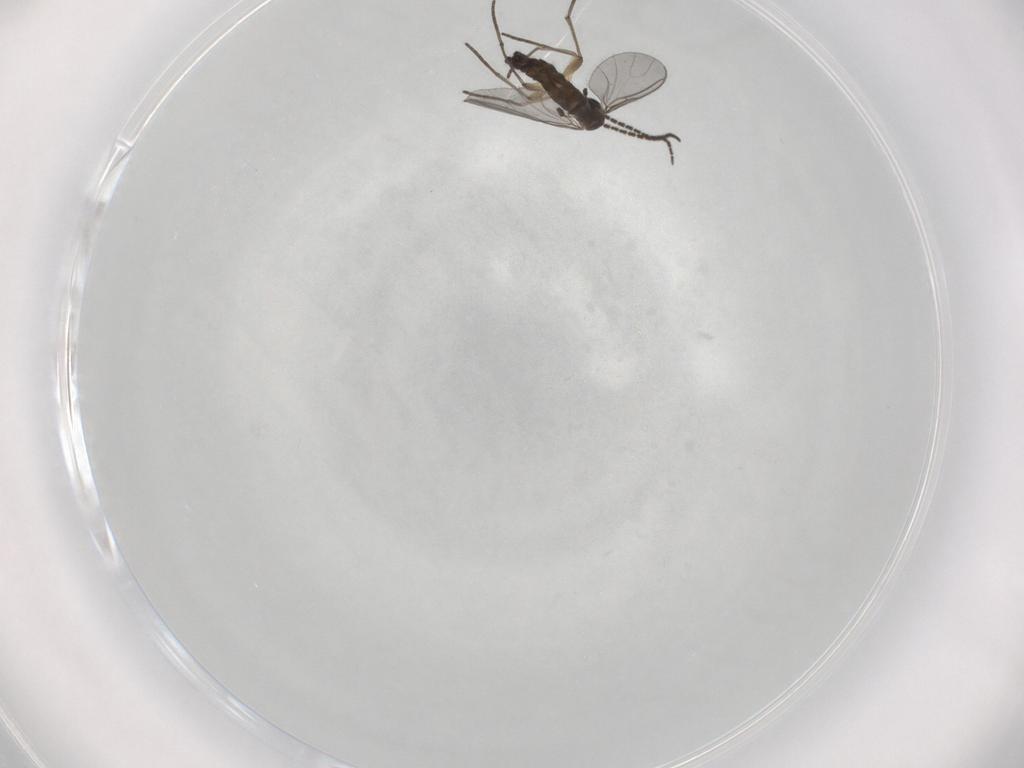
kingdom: Animalia
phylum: Arthropoda
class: Insecta
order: Diptera
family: Sciaridae
